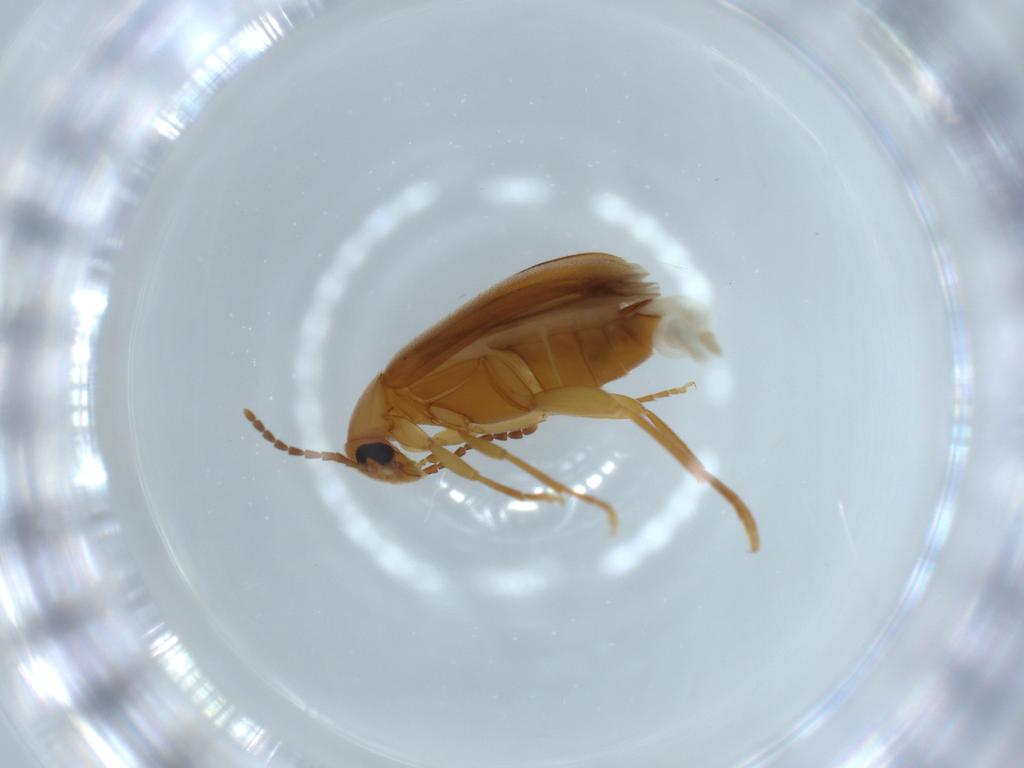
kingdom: Animalia
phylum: Arthropoda
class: Insecta
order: Coleoptera
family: Scraptiidae
